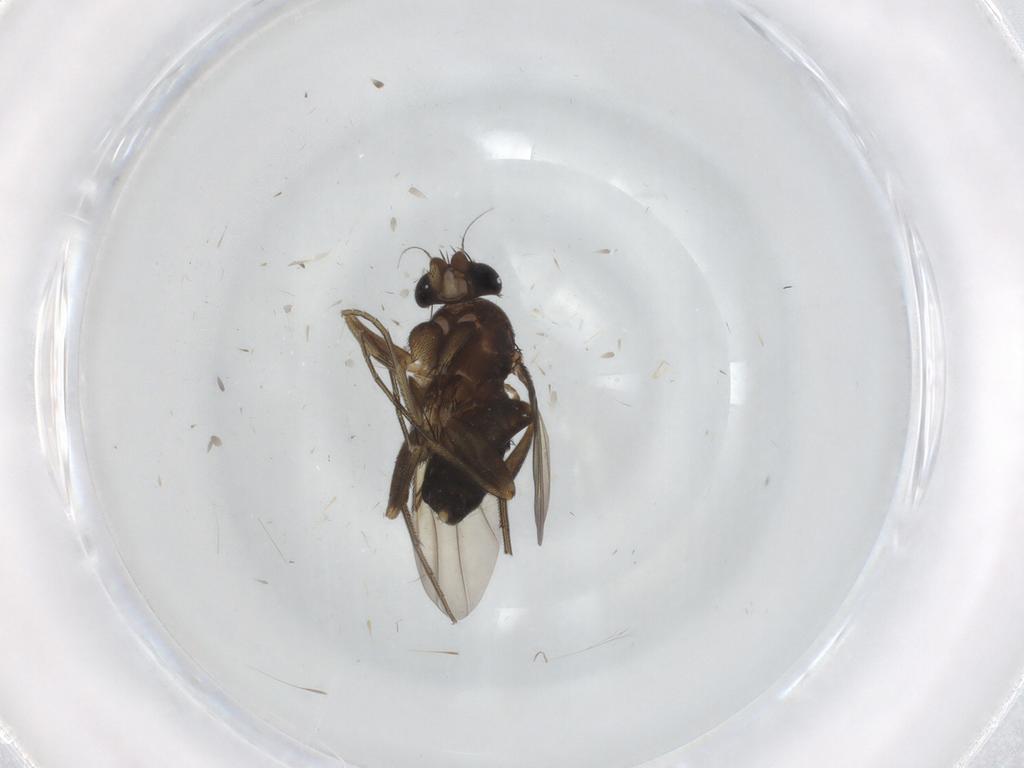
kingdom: Animalia
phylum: Arthropoda
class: Insecta
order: Diptera
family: Phoridae
